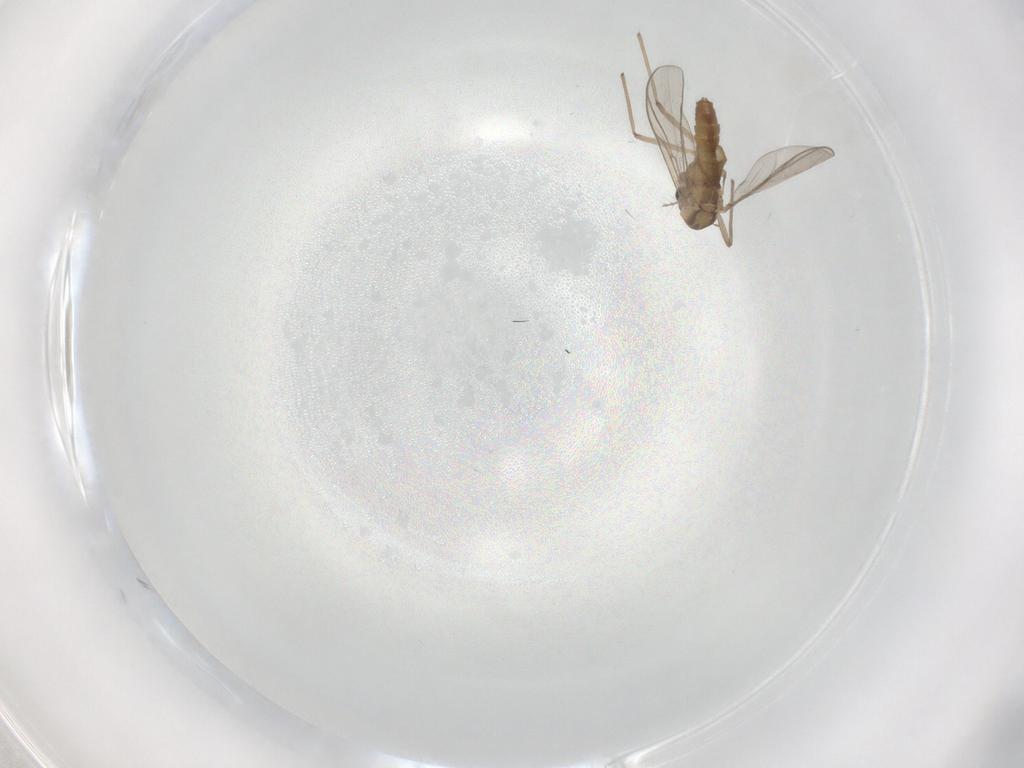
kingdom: Animalia
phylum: Arthropoda
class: Insecta
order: Diptera
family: Chironomidae
